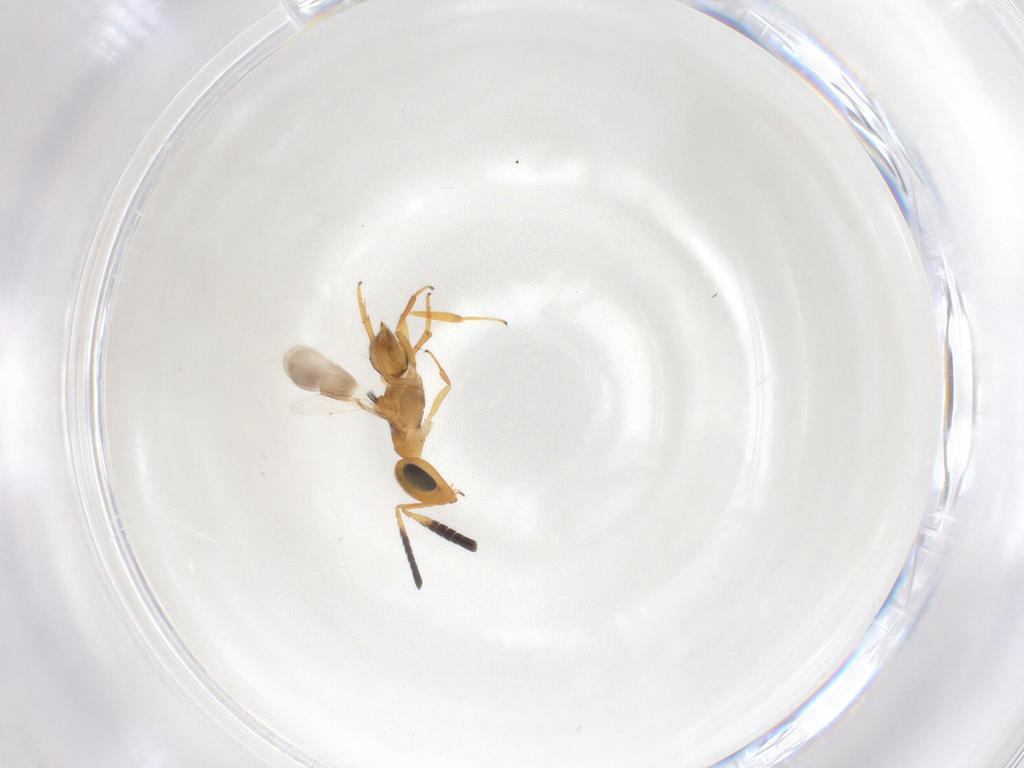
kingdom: Animalia
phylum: Arthropoda
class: Insecta
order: Hymenoptera
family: Encyrtidae
